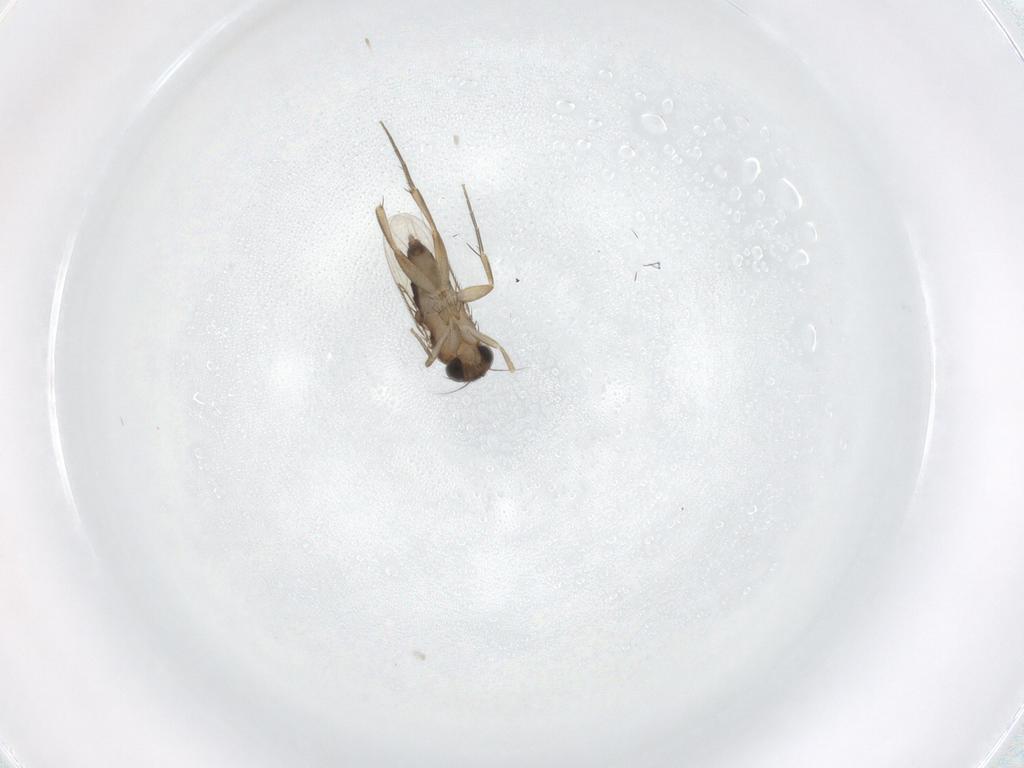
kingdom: Animalia
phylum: Arthropoda
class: Insecta
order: Diptera
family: Phoridae
